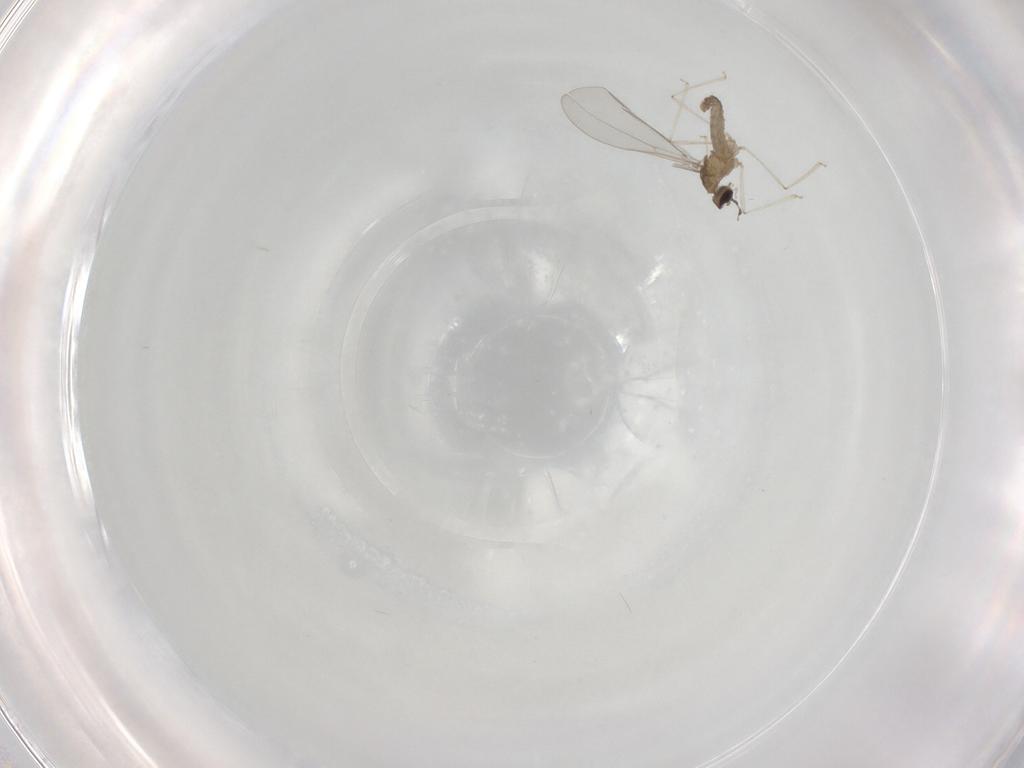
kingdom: Animalia
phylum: Arthropoda
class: Insecta
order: Diptera
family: Cecidomyiidae
